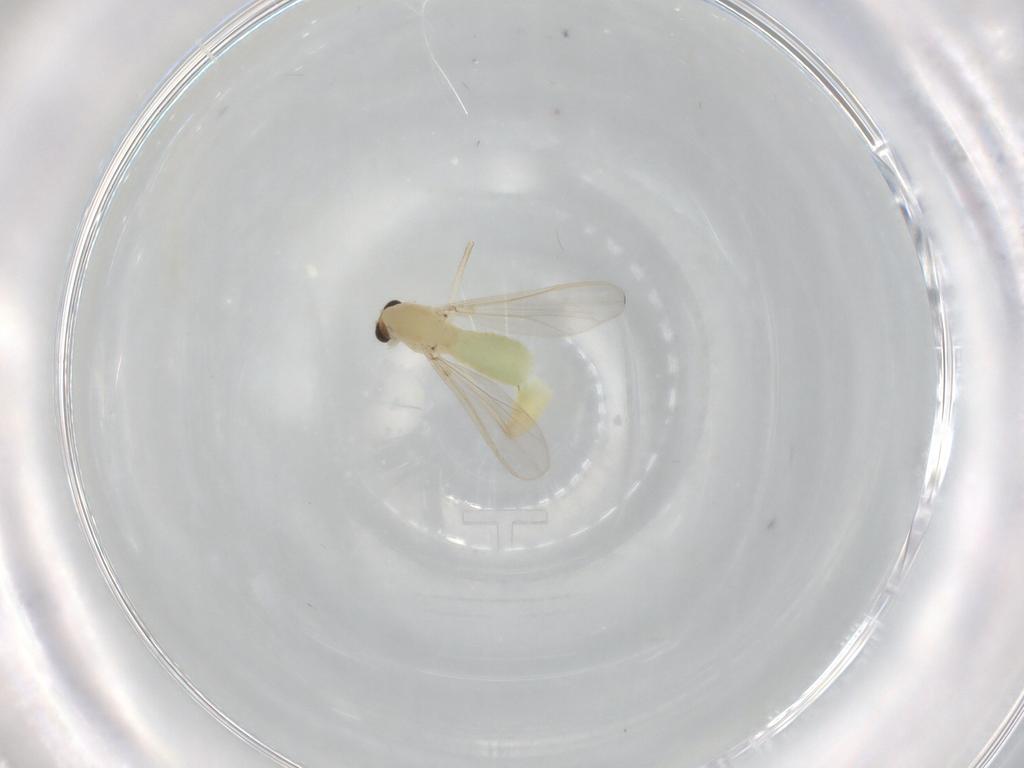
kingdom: Animalia
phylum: Arthropoda
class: Insecta
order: Diptera
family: Chironomidae
